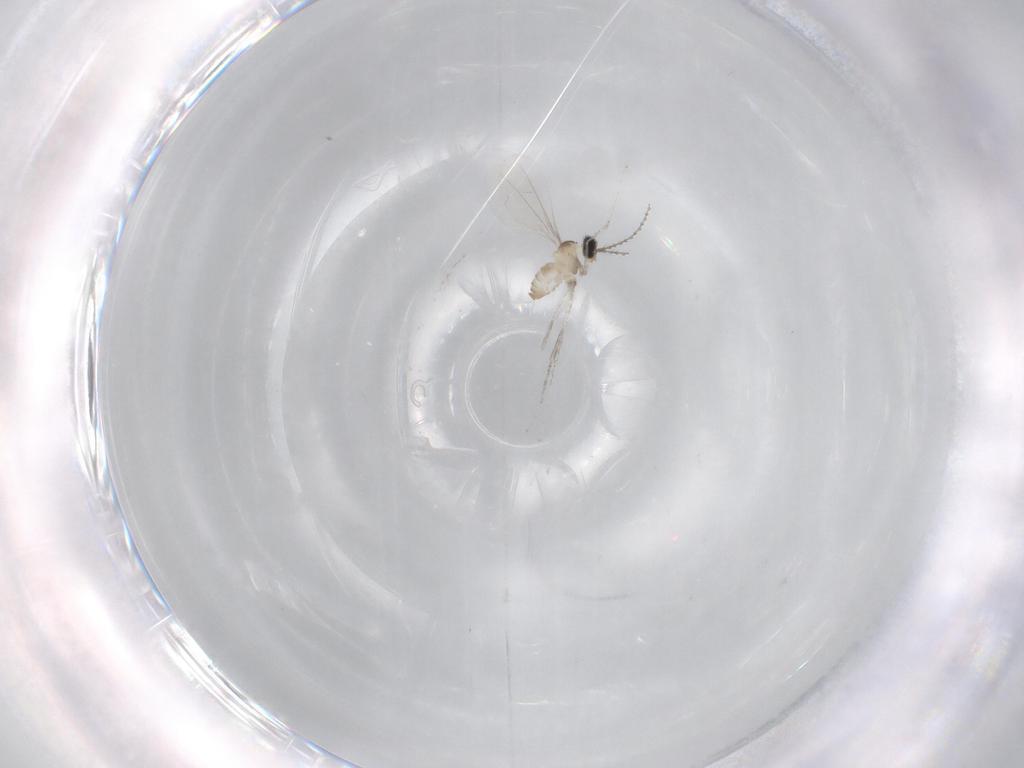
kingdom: Animalia
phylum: Arthropoda
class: Insecta
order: Diptera
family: Cecidomyiidae
